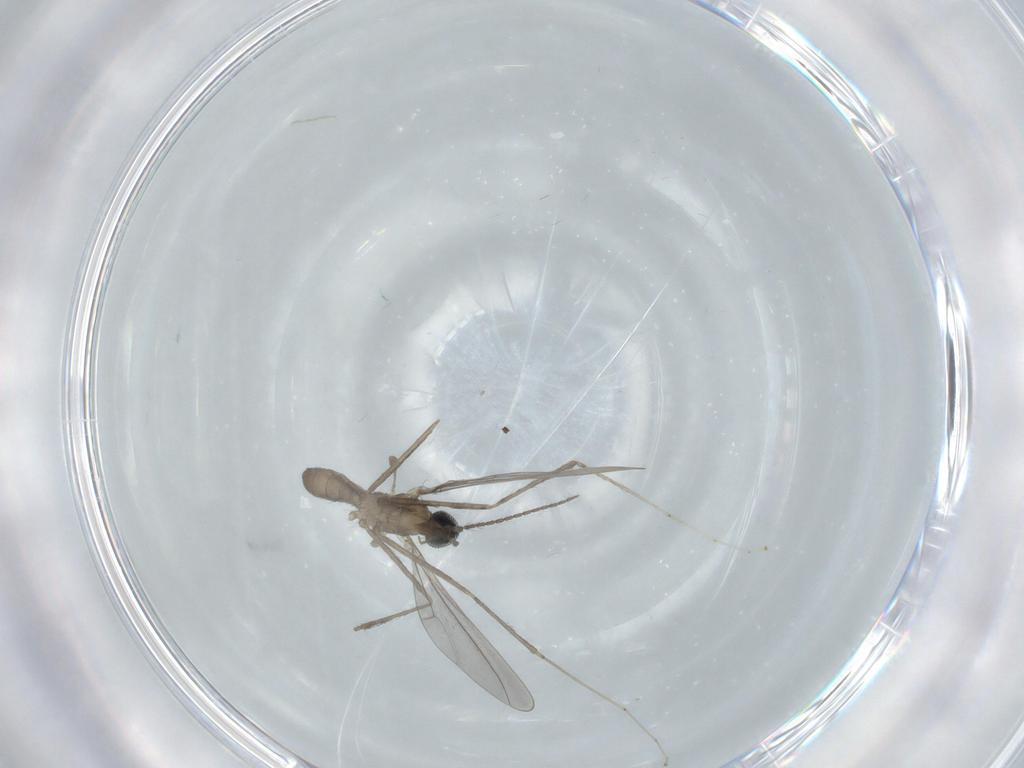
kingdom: Animalia
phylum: Arthropoda
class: Insecta
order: Diptera
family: Cecidomyiidae
